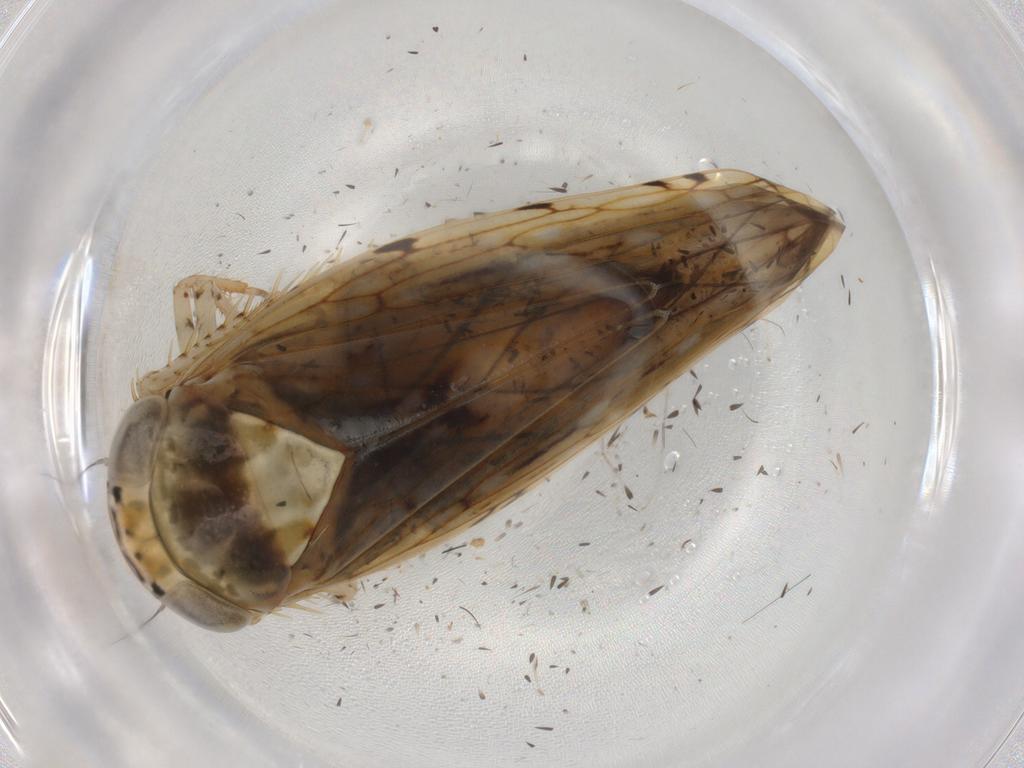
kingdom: Animalia
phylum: Arthropoda
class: Insecta
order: Hemiptera
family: Cicadellidae
